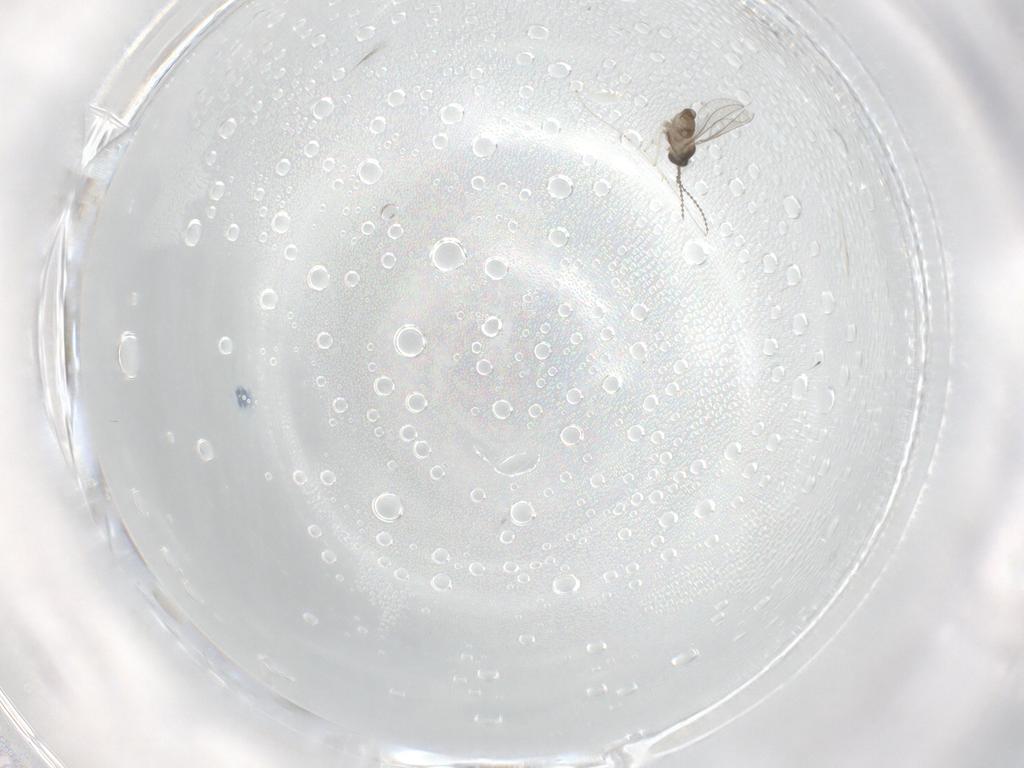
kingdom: Animalia
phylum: Arthropoda
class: Insecta
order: Diptera
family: Cecidomyiidae
